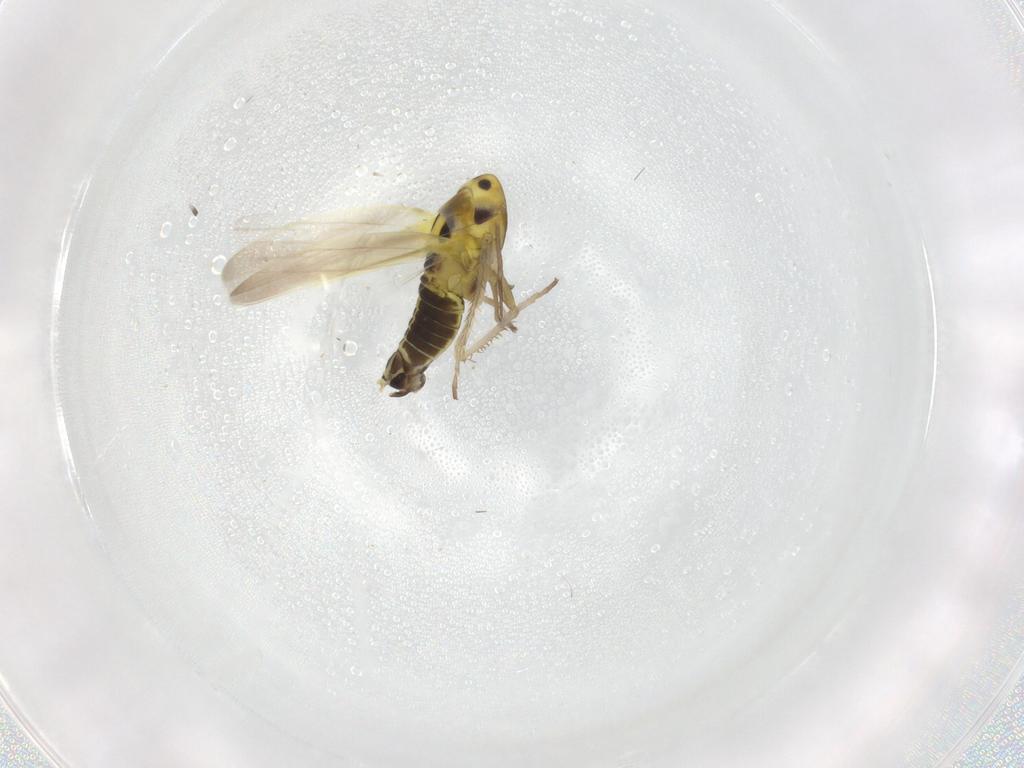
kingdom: Animalia
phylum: Arthropoda
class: Insecta
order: Hemiptera
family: Cicadellidae
